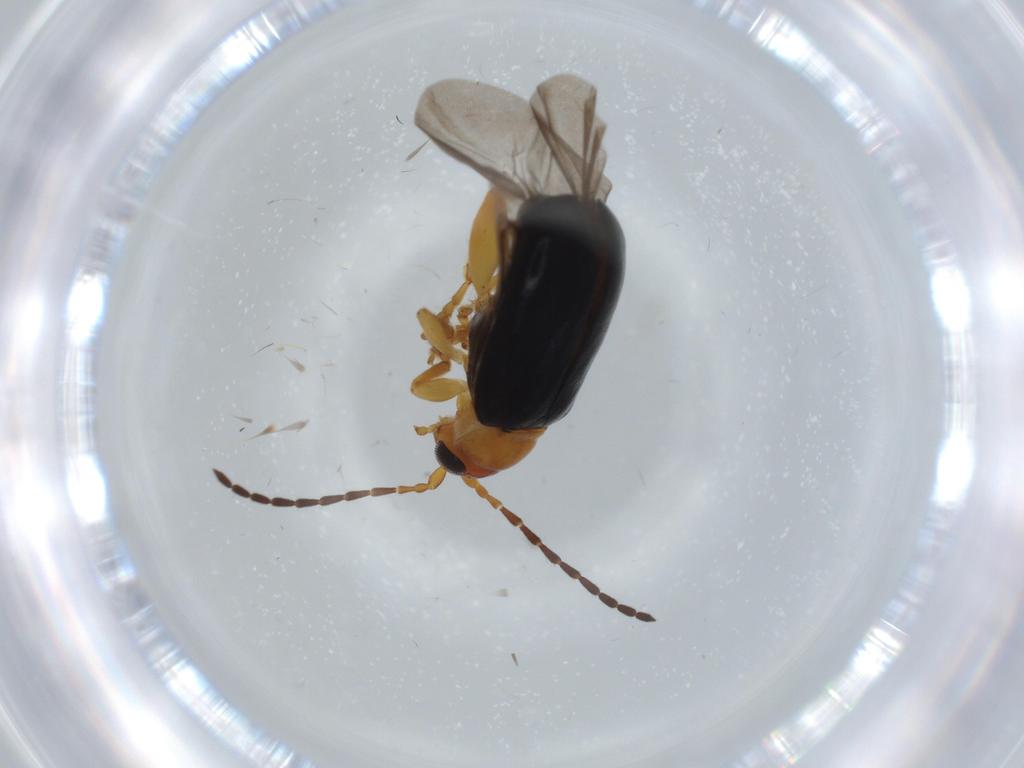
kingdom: Animalia
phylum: Arthropoda
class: Insecta
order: Coleoptera
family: Chrysomelidae
